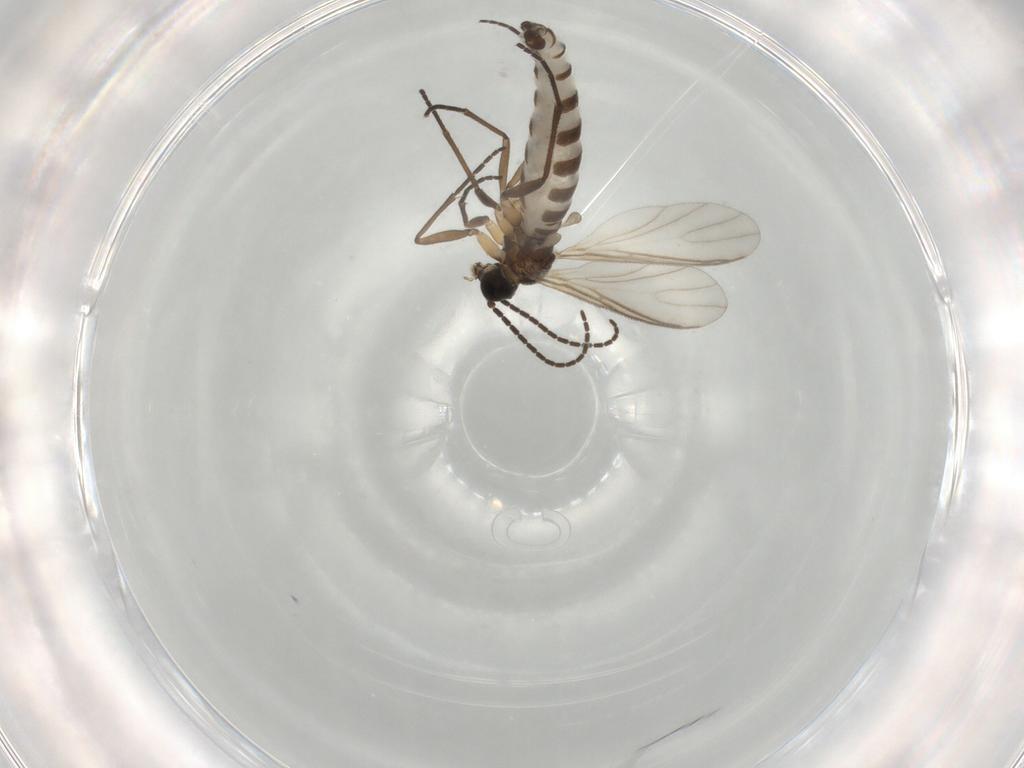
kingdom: Animalia
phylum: Arthropoda
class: Insecta
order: Diptera
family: Sciaridae
